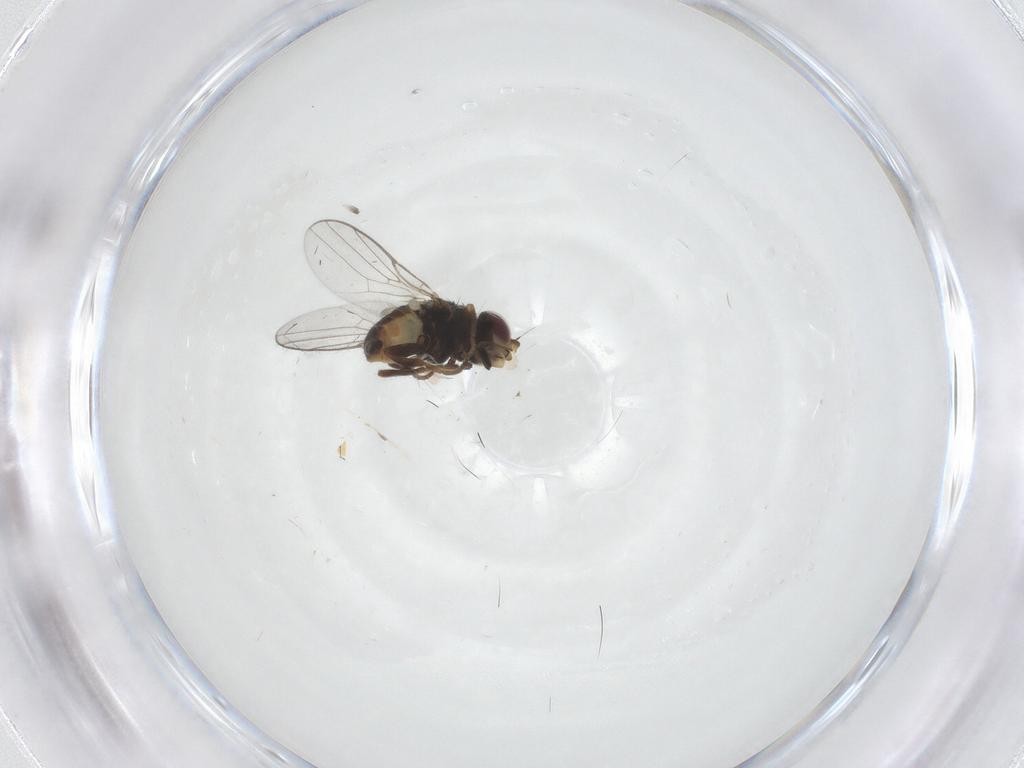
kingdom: Animalia
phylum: Arthropoda
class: Insecta
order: Diptera
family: Chloropidae
